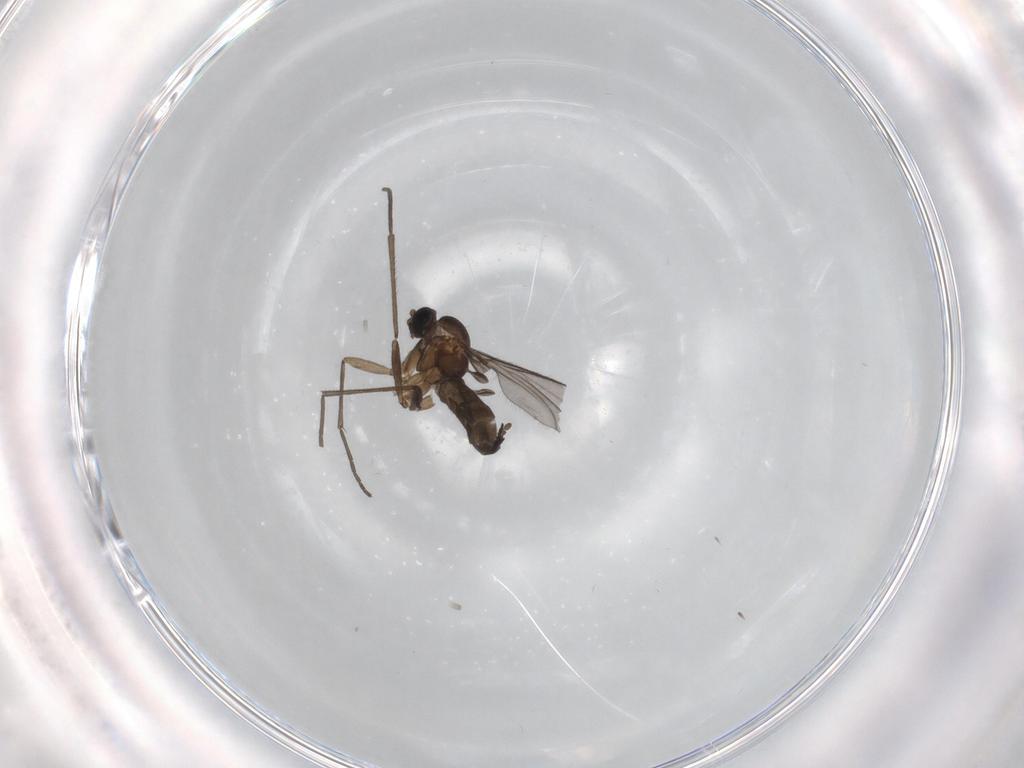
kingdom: Animalia
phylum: Arthropoda
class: Insecta
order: Diptera
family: Sciaridae
